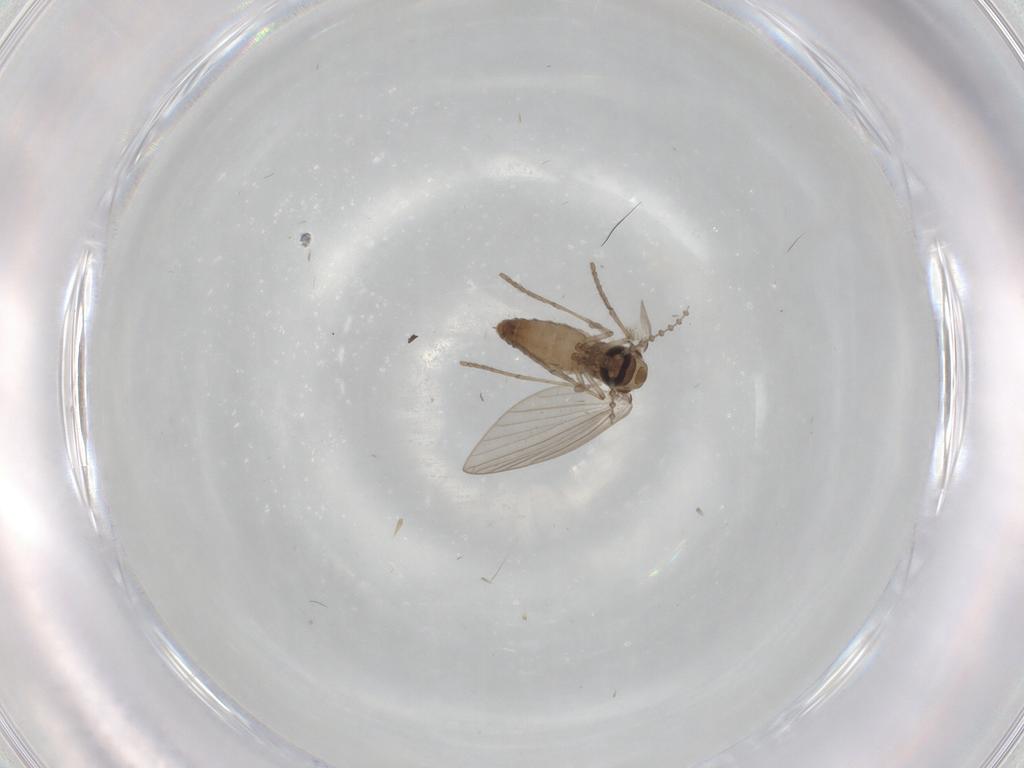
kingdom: Animalia
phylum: Arthropoda
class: Insecta
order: Diptera
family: Psychodidae
